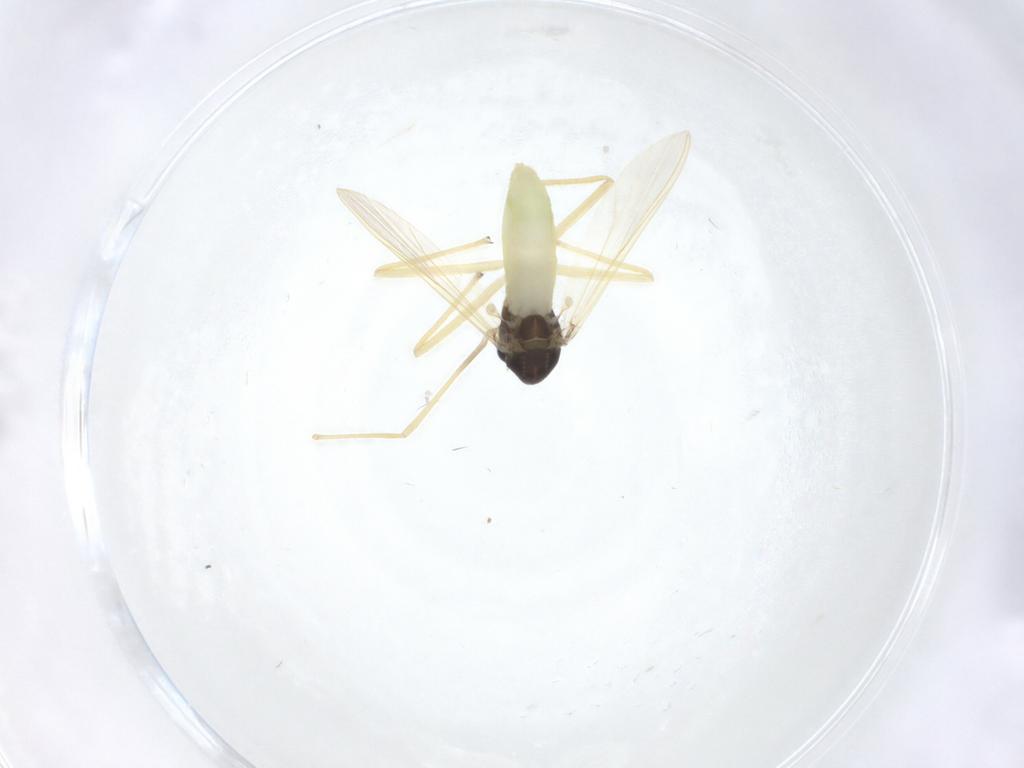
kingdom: Animalia
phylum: Arthropoda
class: Insecta
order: Diptera
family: Chironomidae
